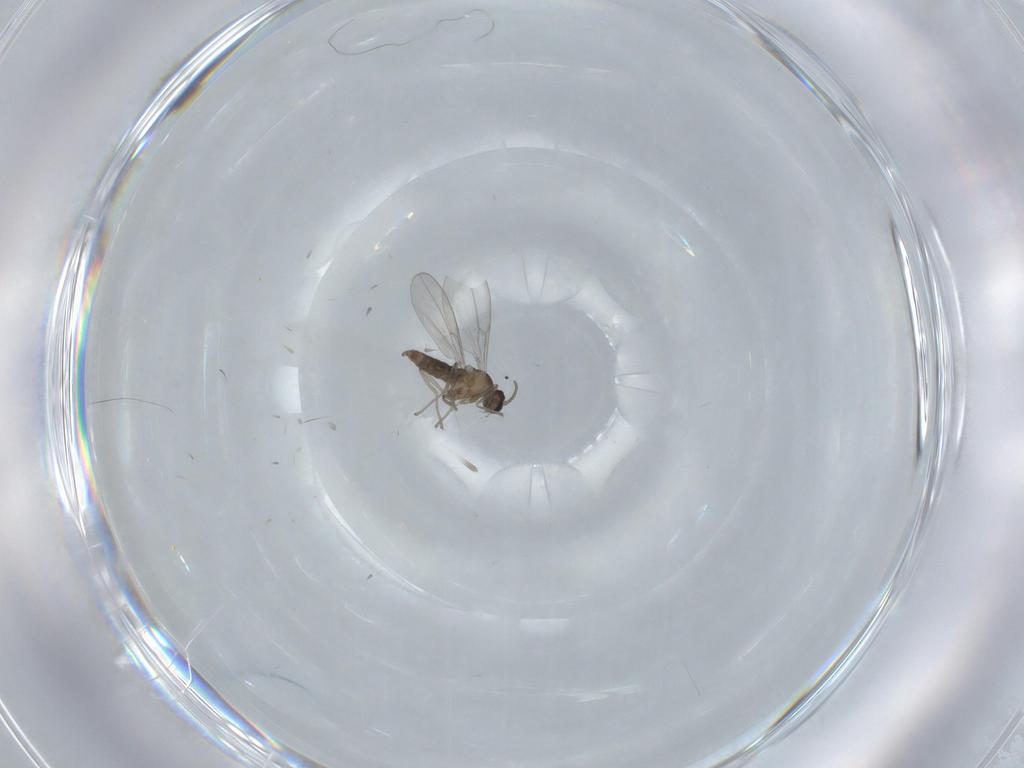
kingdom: Animalia
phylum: Arthropoda
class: Insecta
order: Diptera
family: Cecidomyiidae
